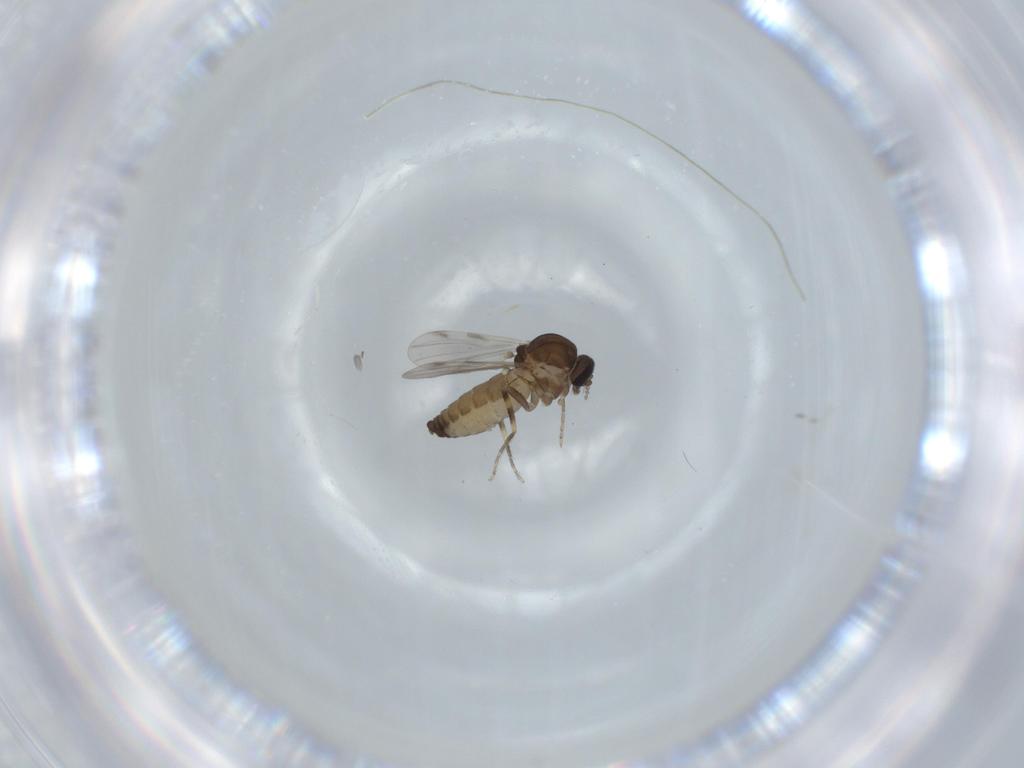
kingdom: Animalia
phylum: Arthropoda
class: Insecta
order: Diptera
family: Ceratopogonidae
